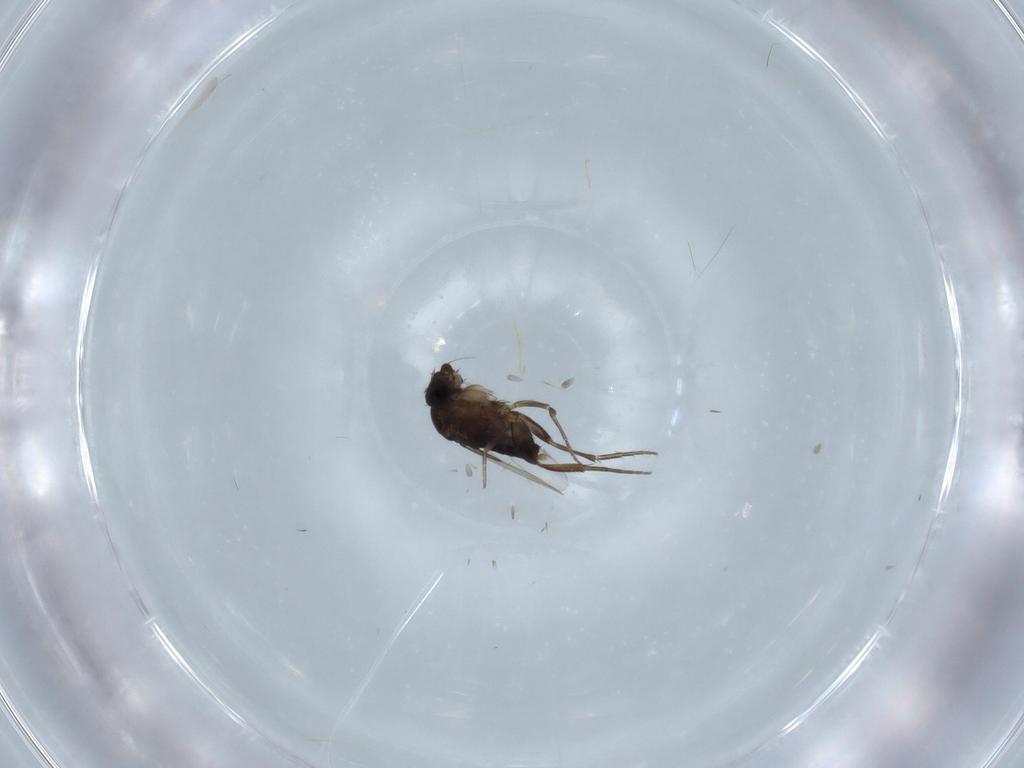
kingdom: Animalia
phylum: Arthropoda
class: Insecta
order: Diptera
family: Phoridae
